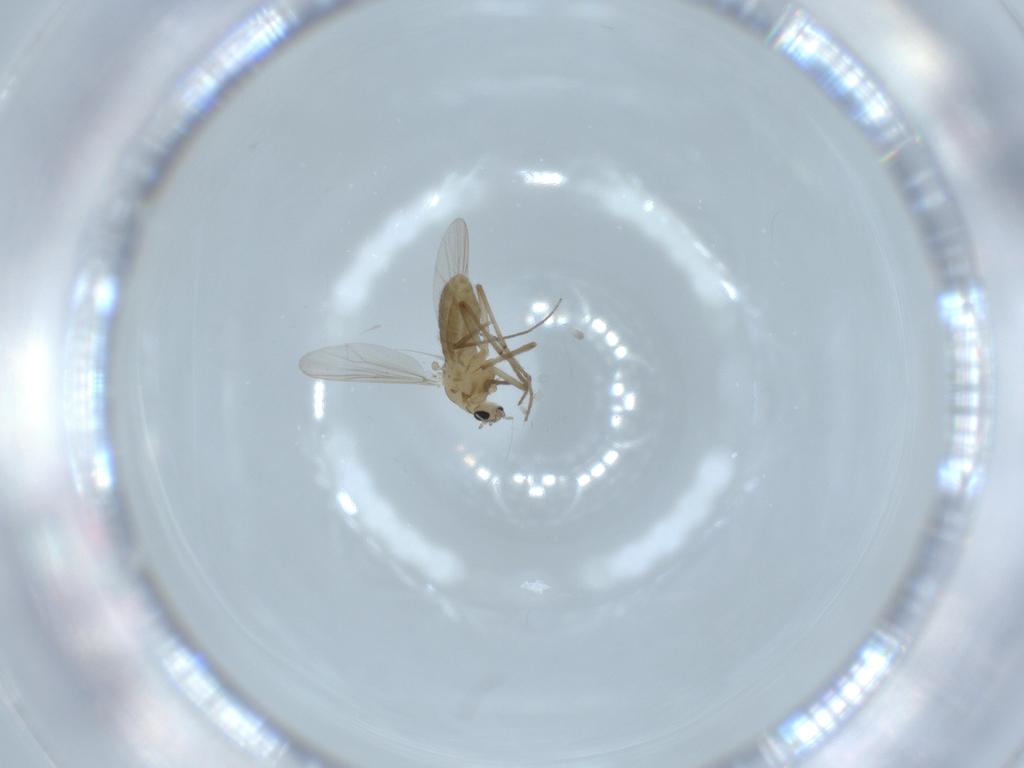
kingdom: Animalia
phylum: Arthropoda
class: Insecta
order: Diptera
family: Chironomidae
